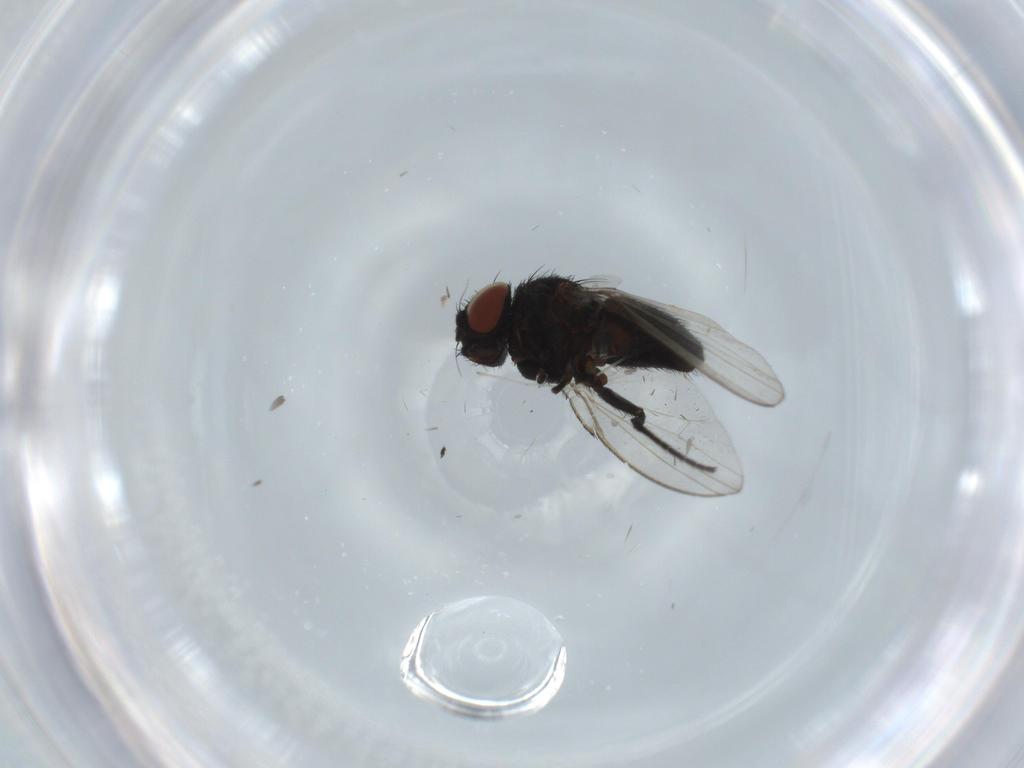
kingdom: Animalia
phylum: Arthropoda
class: Insecta
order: Diptera
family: Milichiidae
